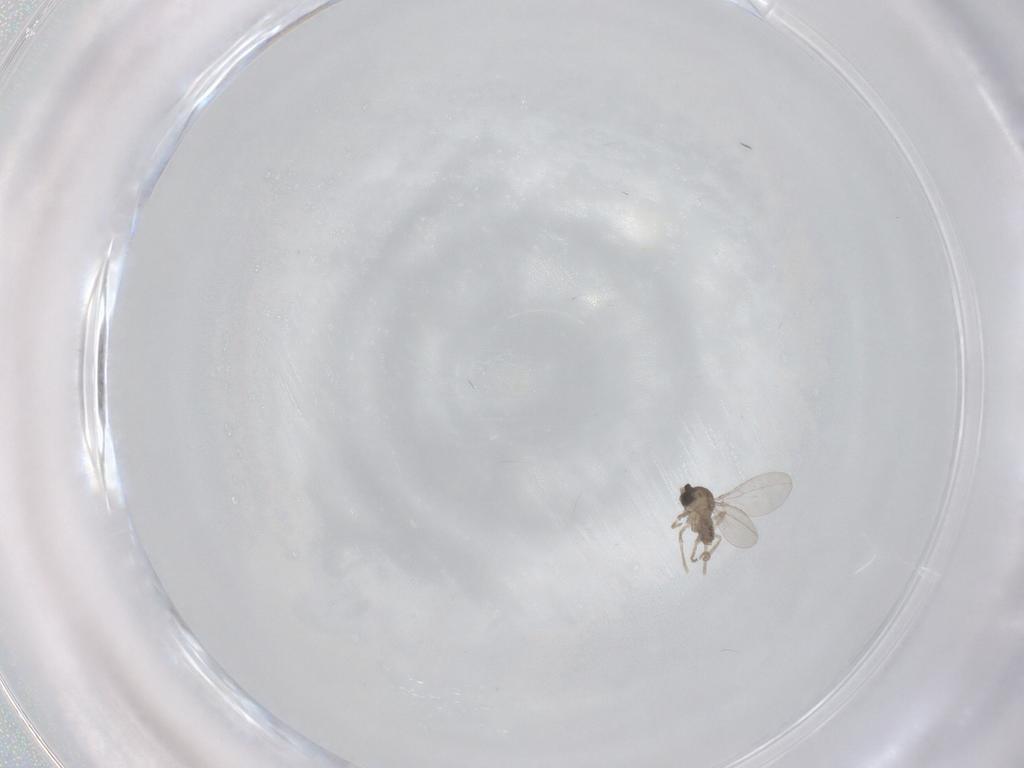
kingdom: Animalia
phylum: Arthropoda
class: Insecta
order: Diptera
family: Cecidomyiidae
